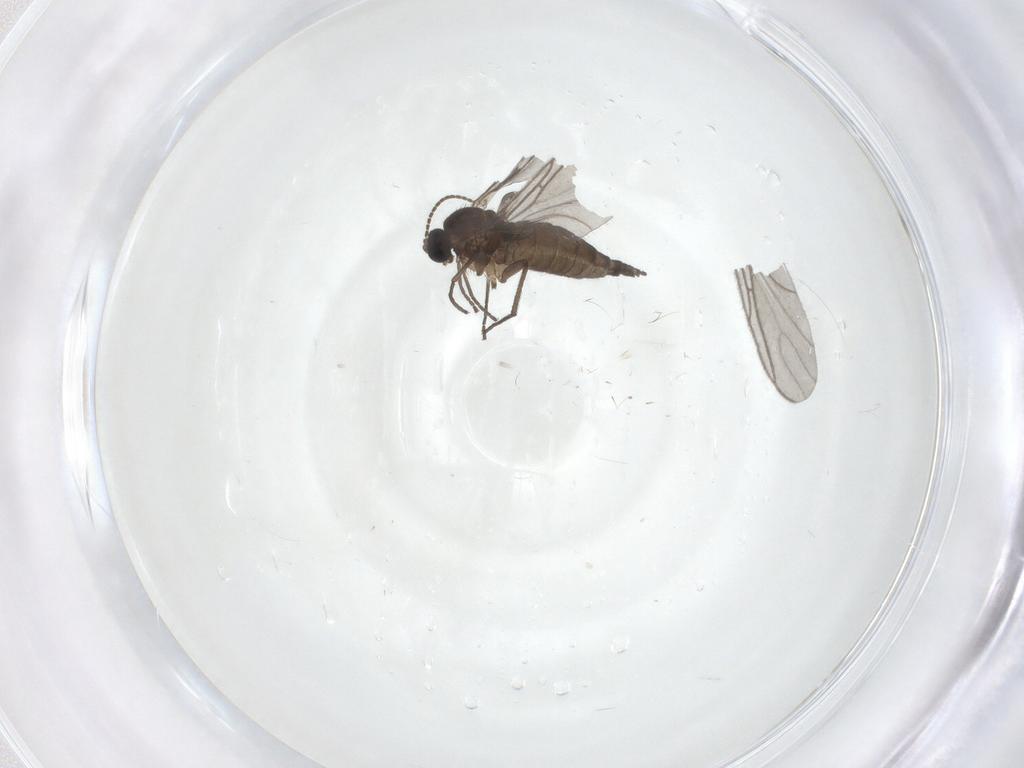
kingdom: Animalia
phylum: Arthropoda
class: Insecta
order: Diptera
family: Sciaridae
